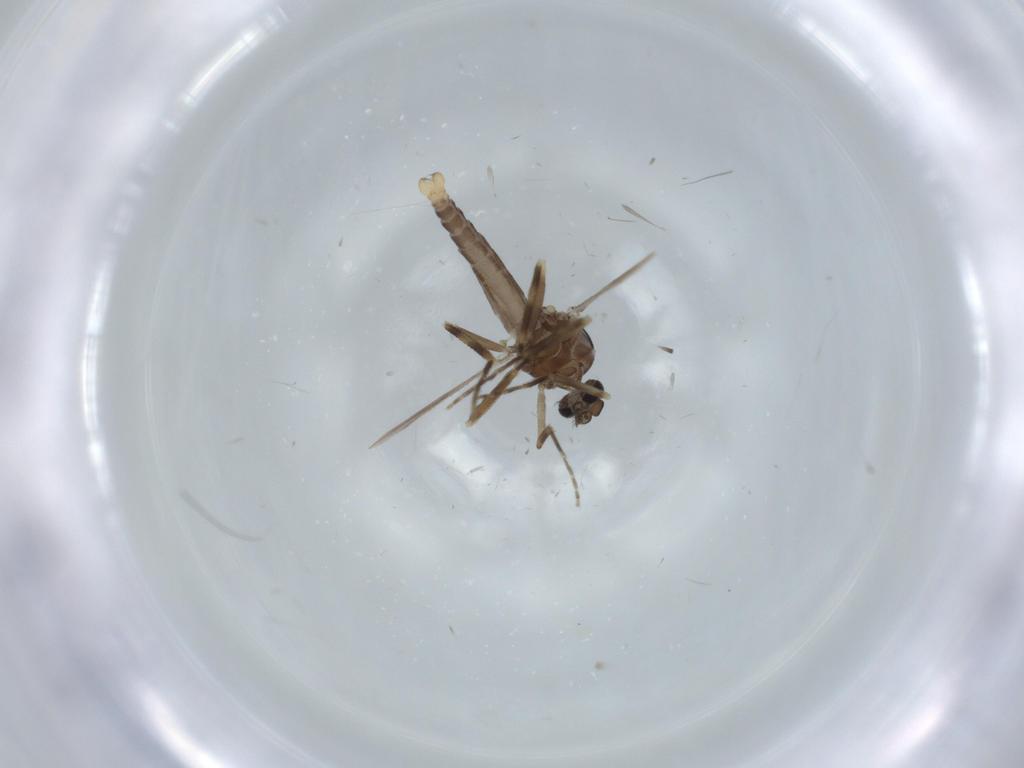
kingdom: Animalia
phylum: Arthropoda
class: Insecta
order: Diptera
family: Ceratopogonidae
